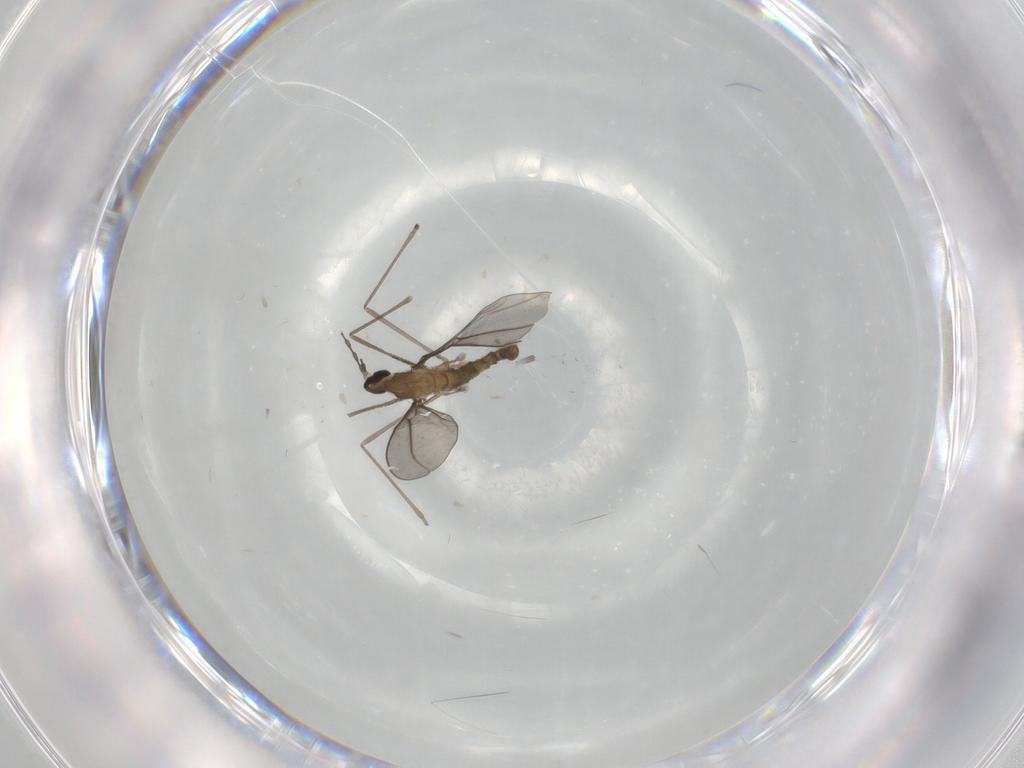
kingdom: Animalia
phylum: Arthropoda
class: Insecta
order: Diptera
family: Cecidomyiidae
